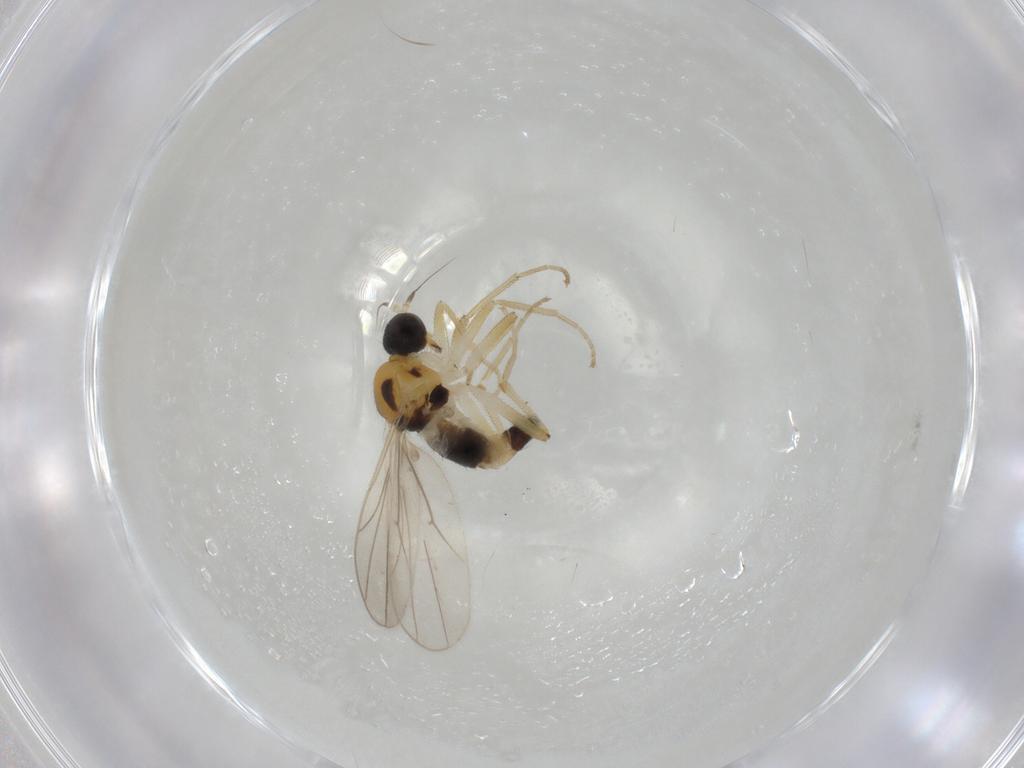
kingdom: Animalia
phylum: Arthropoda
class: Insecta
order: Diptera
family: Hybotidae
